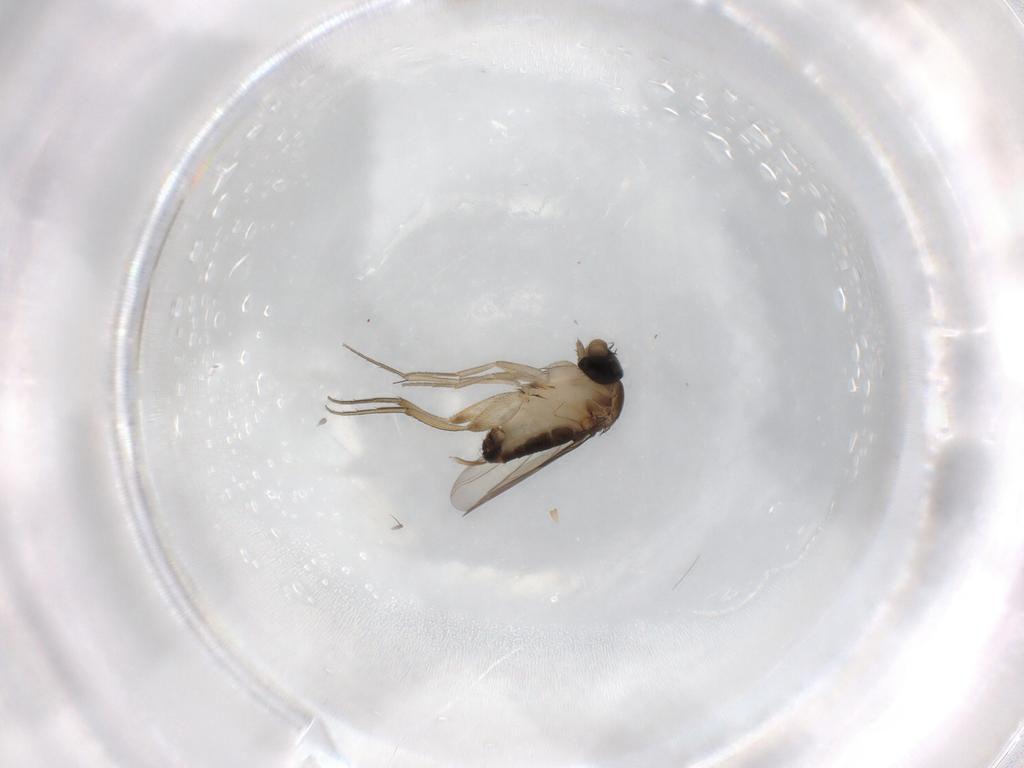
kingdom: Animalia
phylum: Arthropoda
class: Insecta
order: Diptera
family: Phoridae
